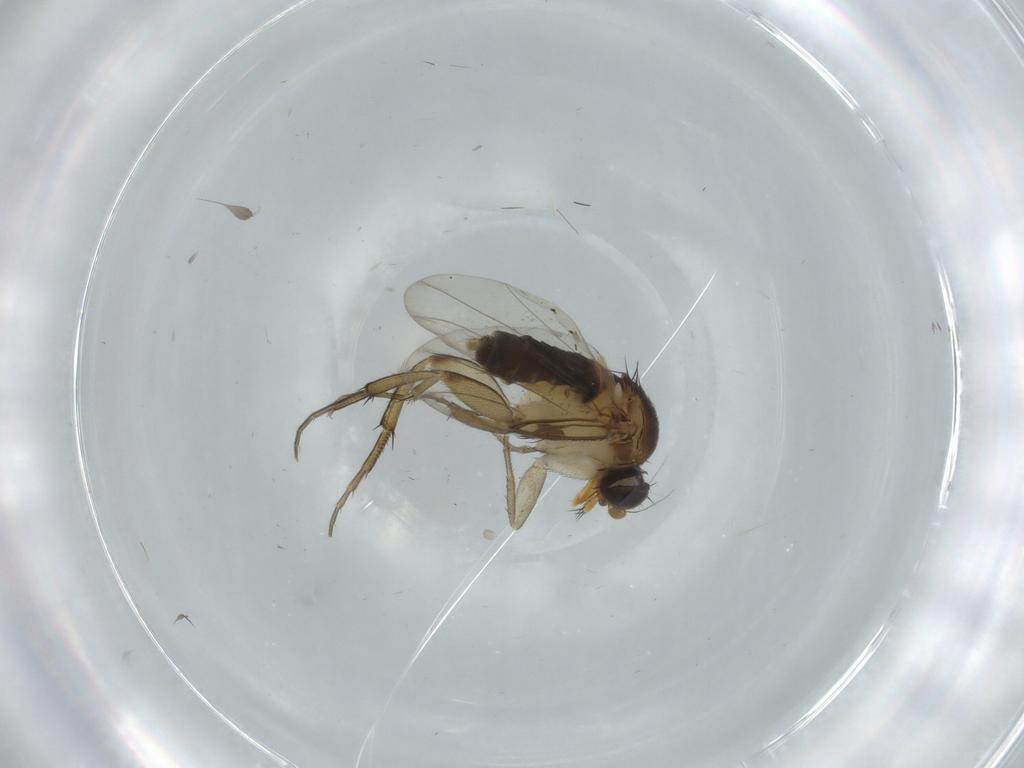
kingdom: Animalia
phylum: Arthropoda
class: Insecta
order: Diptera
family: Phoridae
